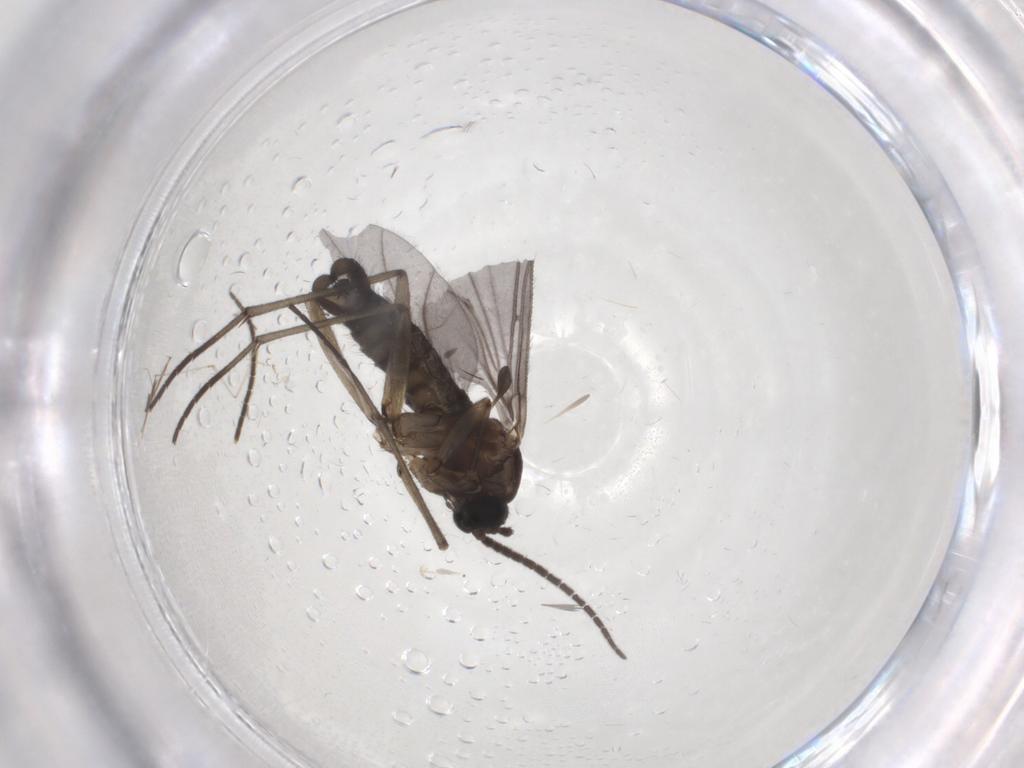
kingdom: Animalia
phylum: Arthropoda
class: Insecta
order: Diptera
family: Sciaridae
